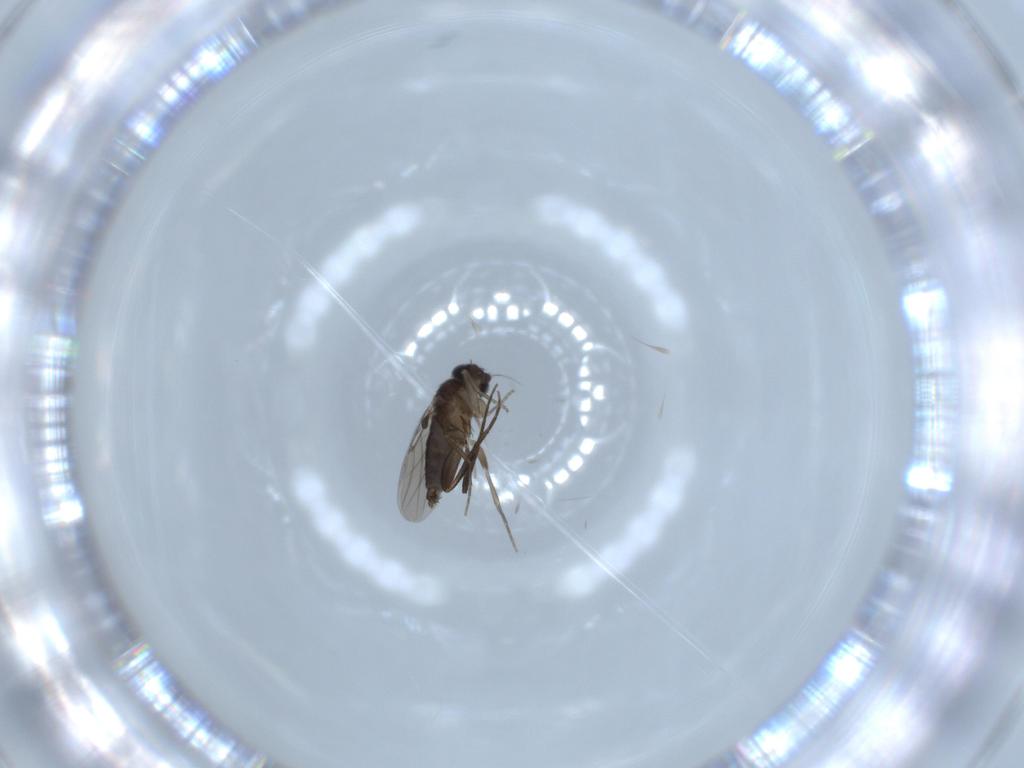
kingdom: Animalia
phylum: Arthropoda
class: Insecta
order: Diptera
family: Phoridae
